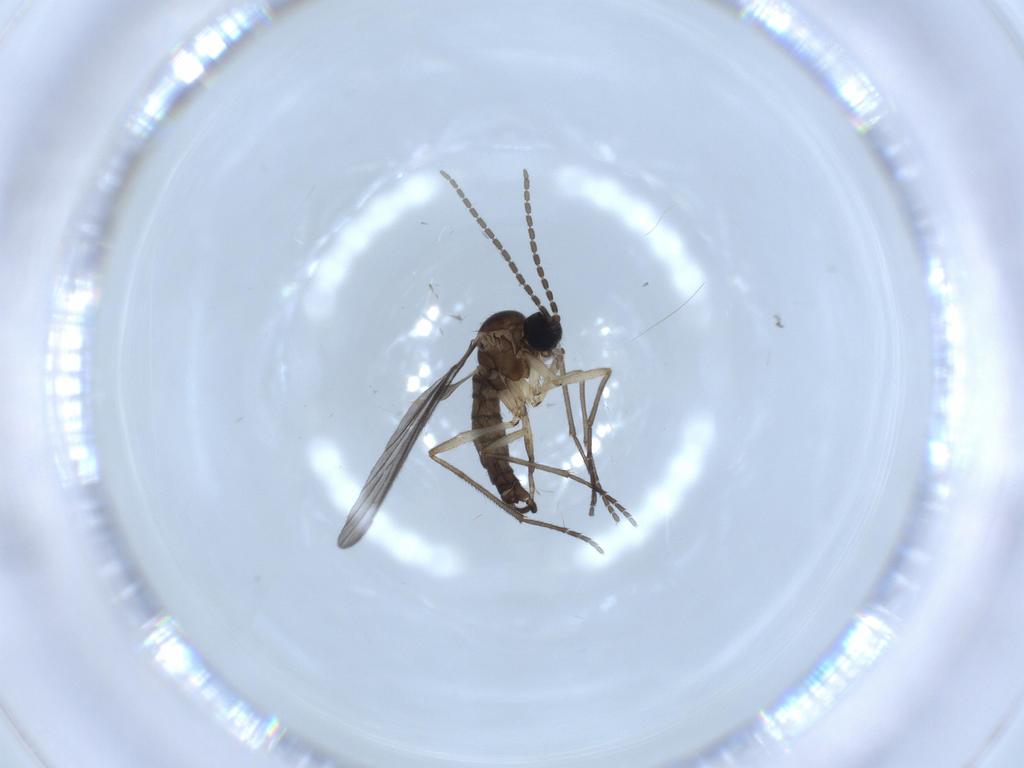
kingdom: Animalia
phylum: Arthropoda
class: Insecta
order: Diptera
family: Sciaridae
